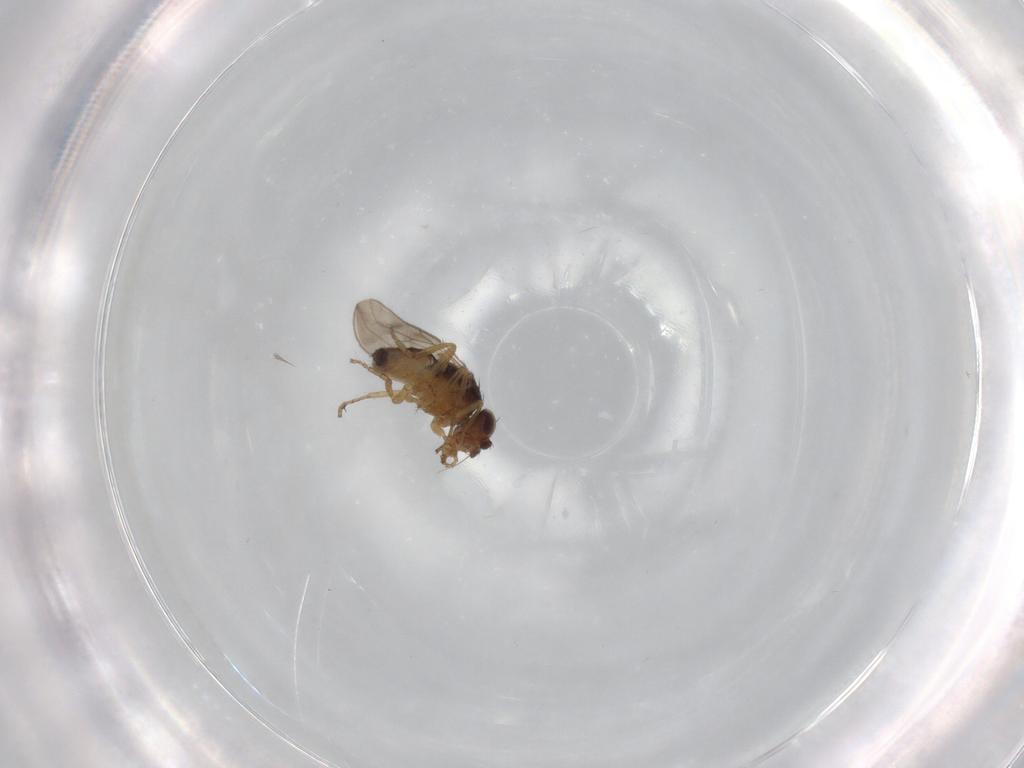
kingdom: Animalia
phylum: Arthropoda
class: Insecta
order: Diptera
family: Sphaeroceridae
